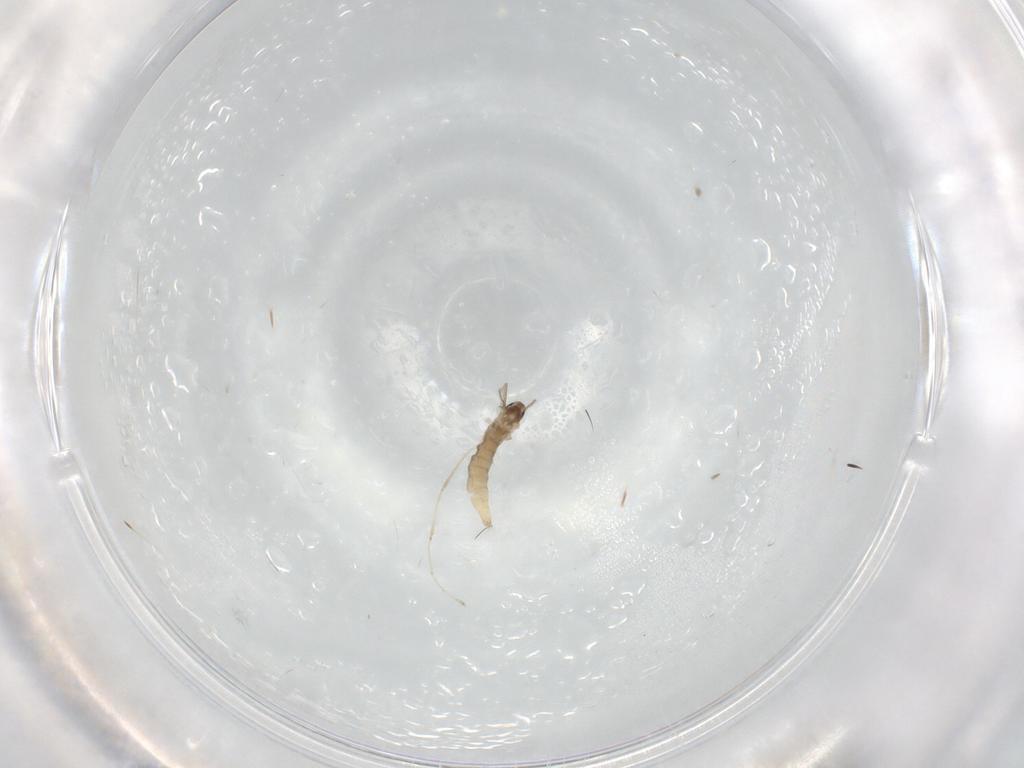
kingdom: Animalia
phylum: Arthropoda
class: Insecta
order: Diptera
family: Cecidomyiidae
